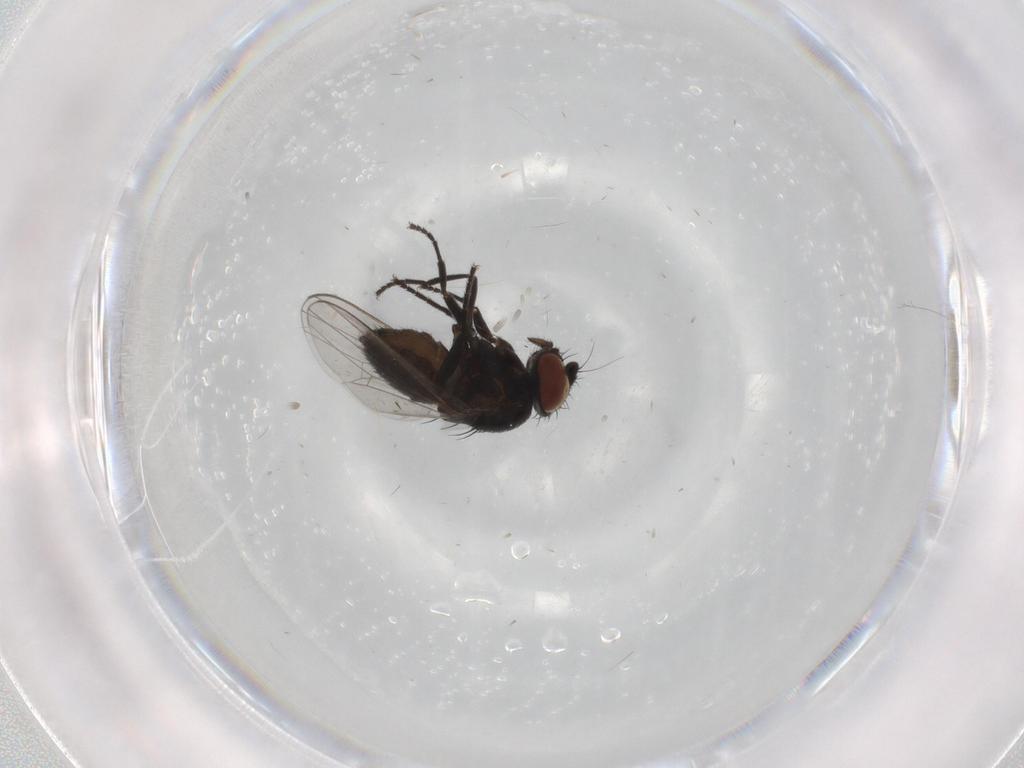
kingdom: Animalia
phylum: Arthropoda
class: Insecta
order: Diptera
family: Milichiidae
